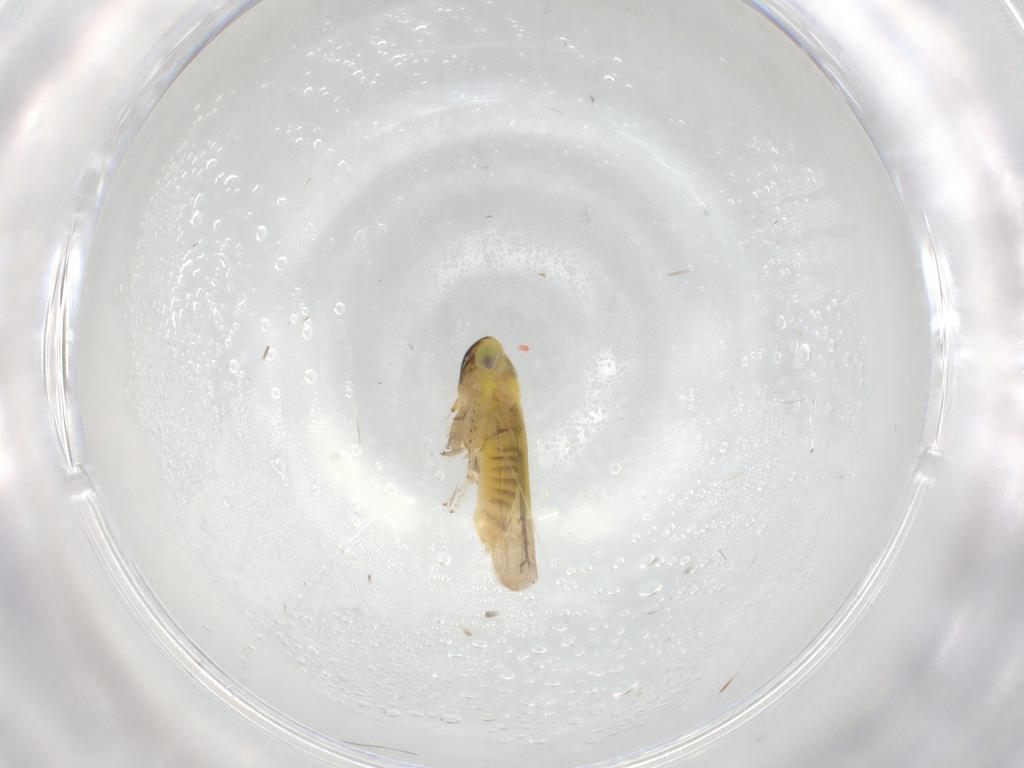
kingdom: Animalia
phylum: Arthropoda
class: Insecta
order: Hemiptera
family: Cicadellidae
